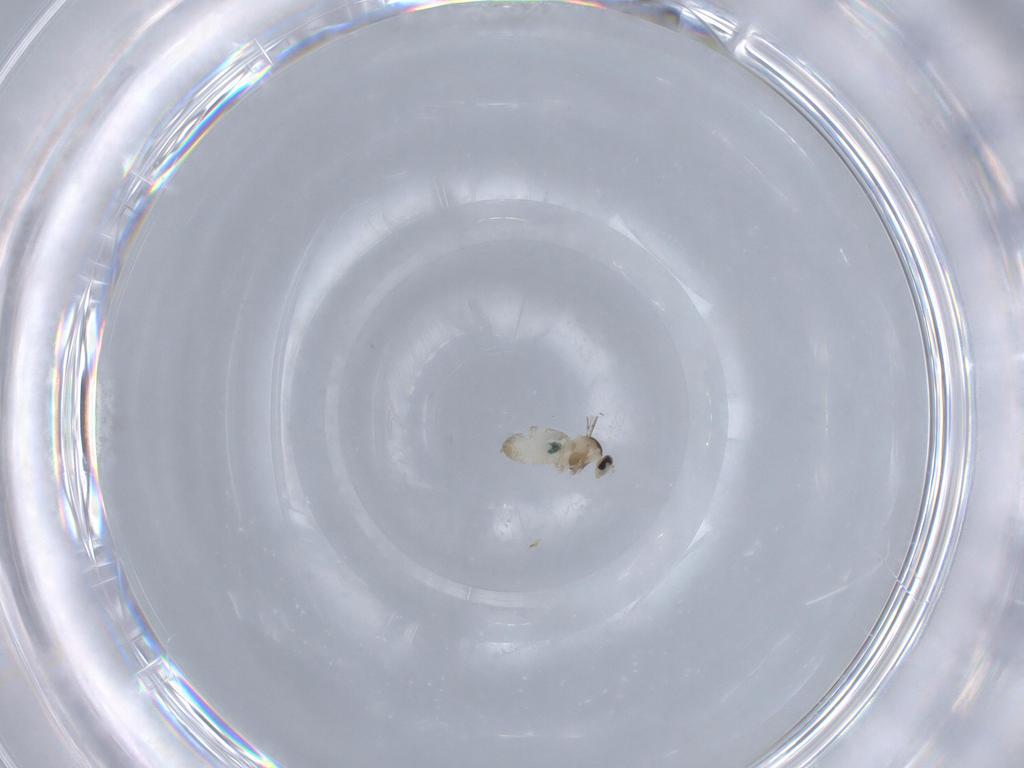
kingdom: Animalia
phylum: Arthropoda
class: Insecta
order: Diptera
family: Cecidomyiidae
